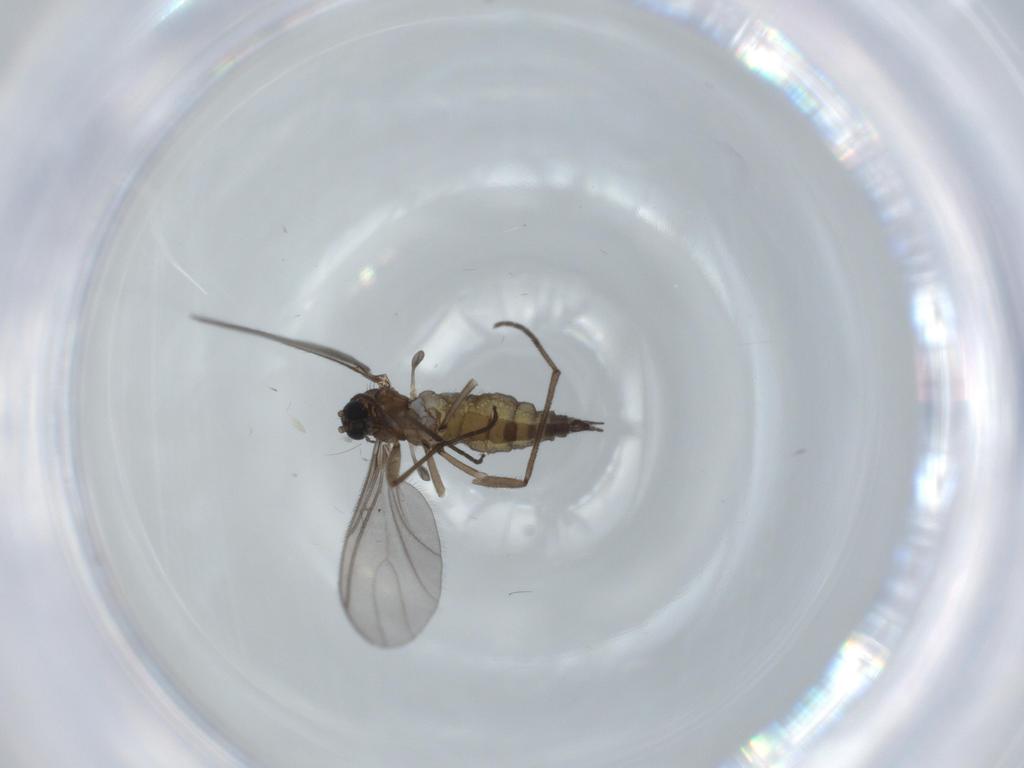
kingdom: Animalia
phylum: Arthropoda
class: Insecta
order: Diptera
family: Sciaridae
